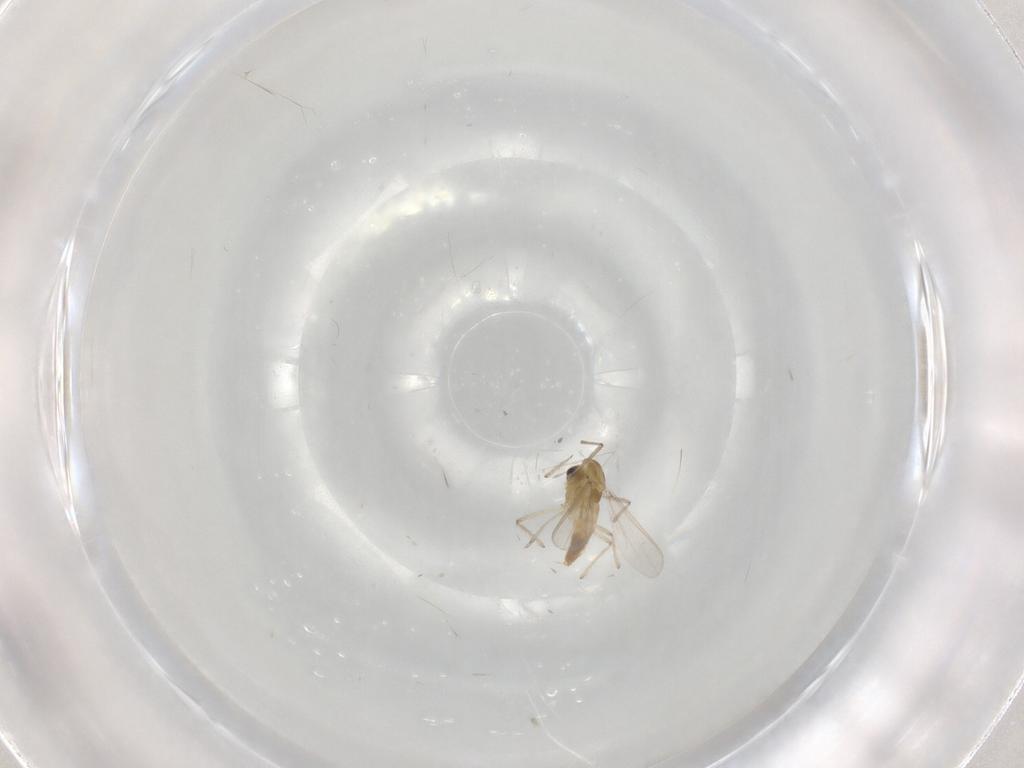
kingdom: Animalia
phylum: Arthropoda
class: Insecta
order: Diptera
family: Chironomidae
